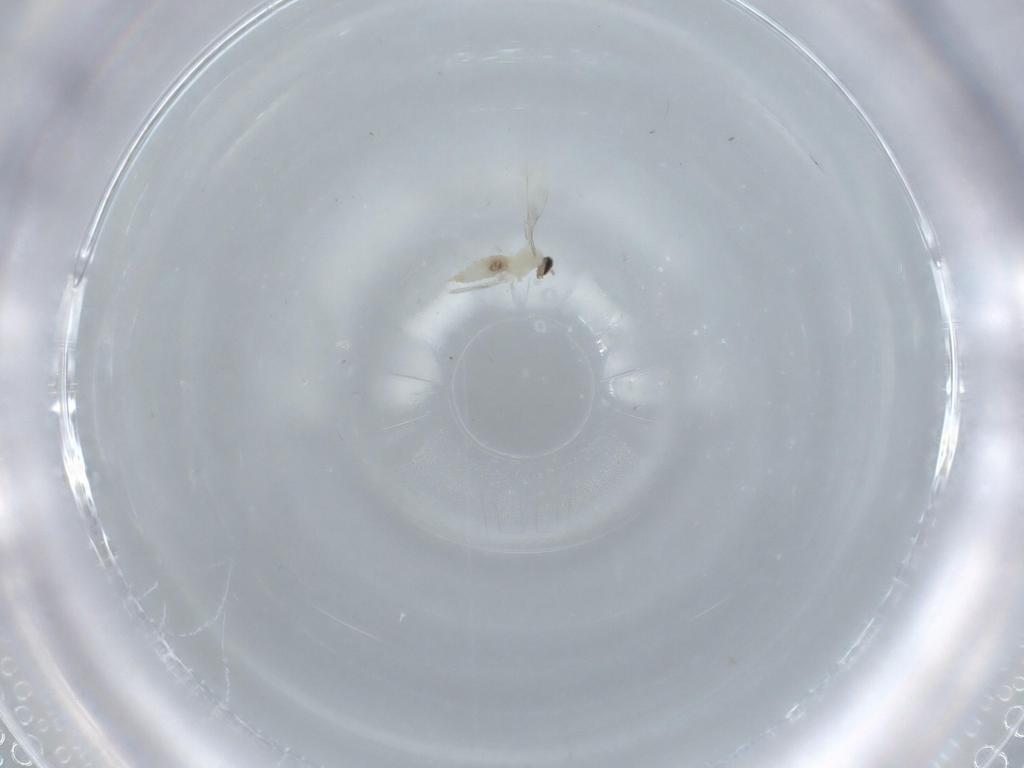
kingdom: Animalia
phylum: Arthropoda
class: Insecta
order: Diptera
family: Cecidomyiidae
